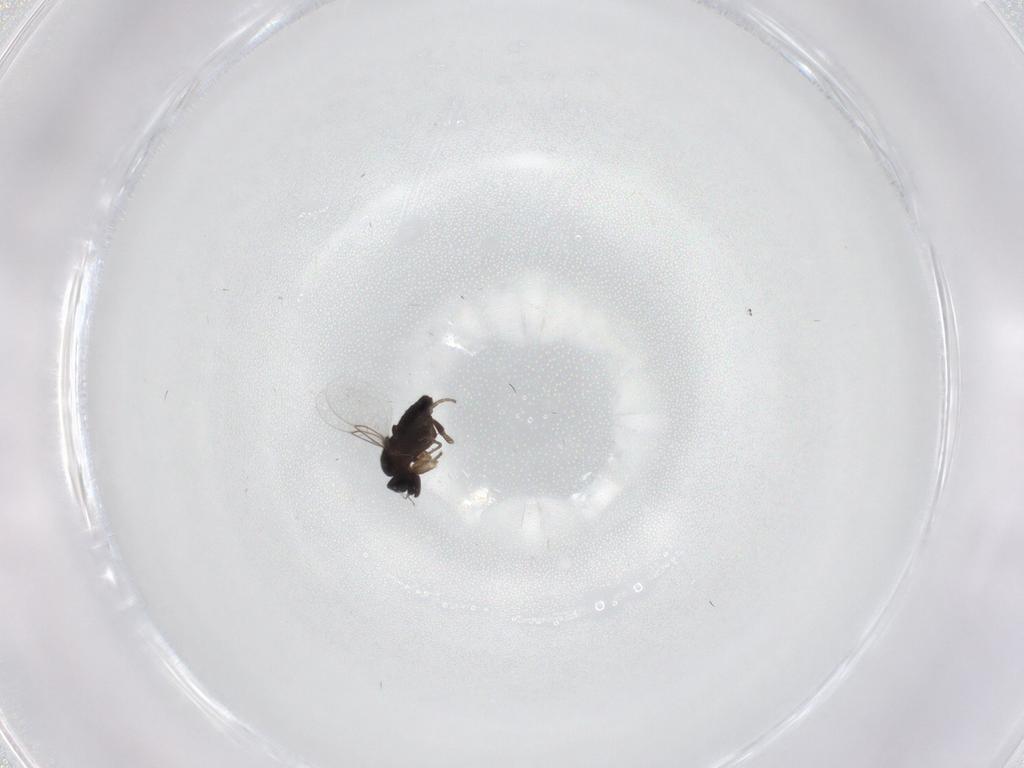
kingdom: Animalia
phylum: Arthropoda
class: Insecta
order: Diptera
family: Phoridae
